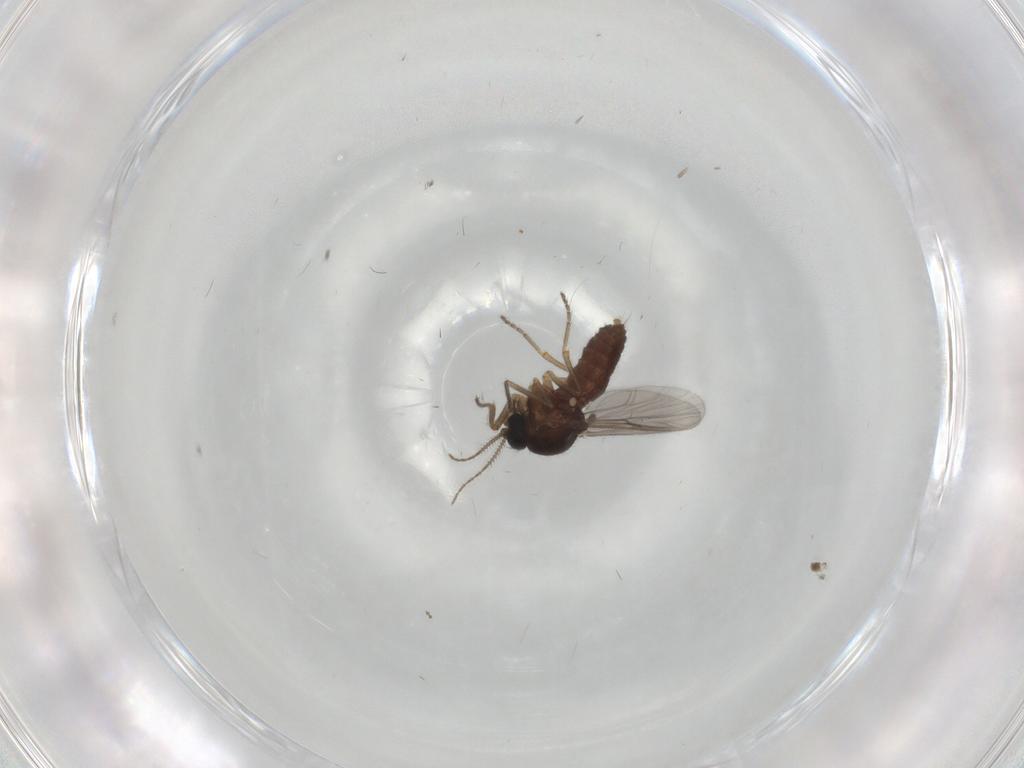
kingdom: Animalia
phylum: Arthropoda
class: Insecta
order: Diptera
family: Ceratopogonidae
